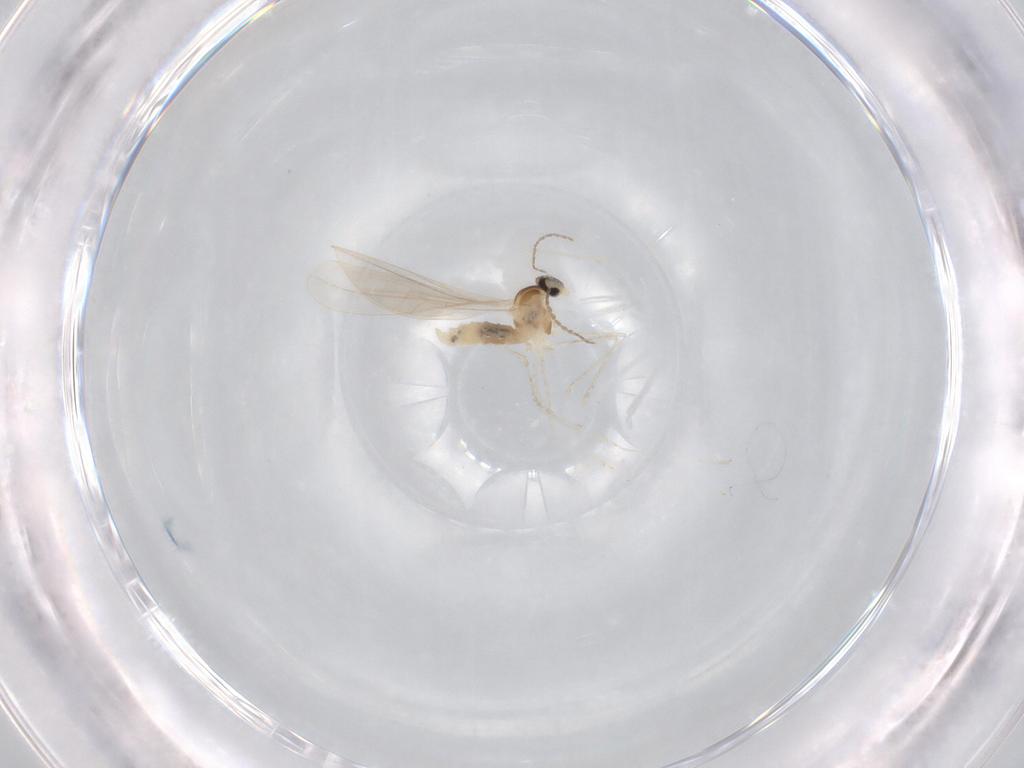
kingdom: Animalia
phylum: Arthropoda
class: Insecta
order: Diptera
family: Cecidomyiidae
